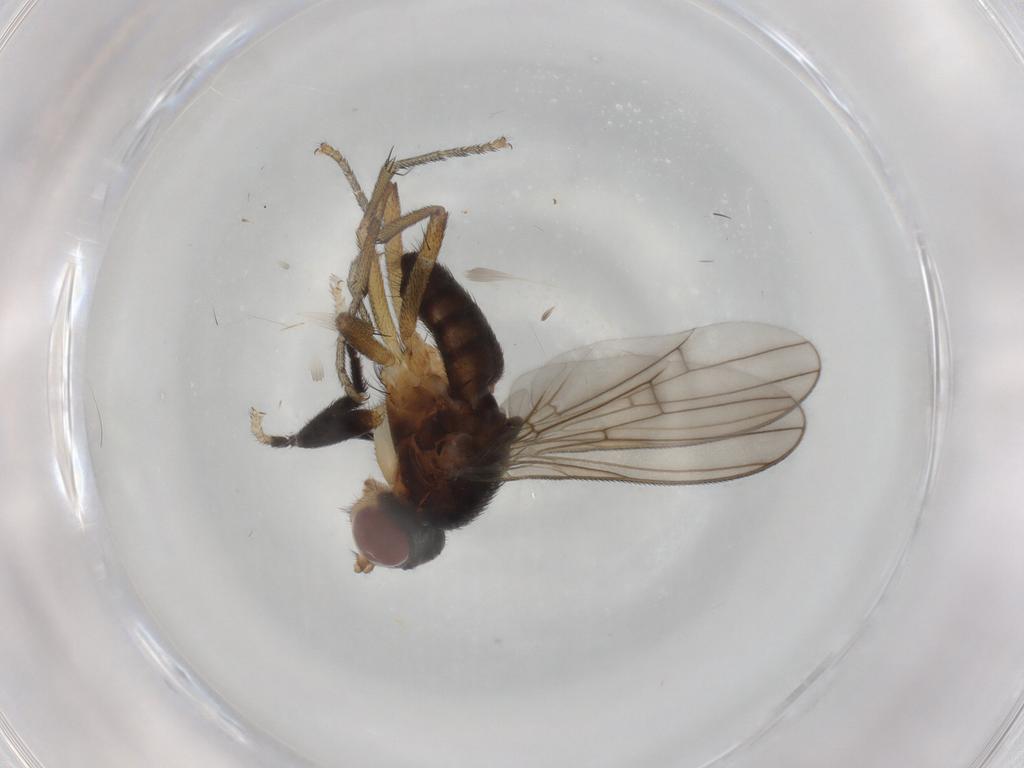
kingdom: Animalia
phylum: Arthropoda
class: Insecta
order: Diptera
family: Sciomyzidae
